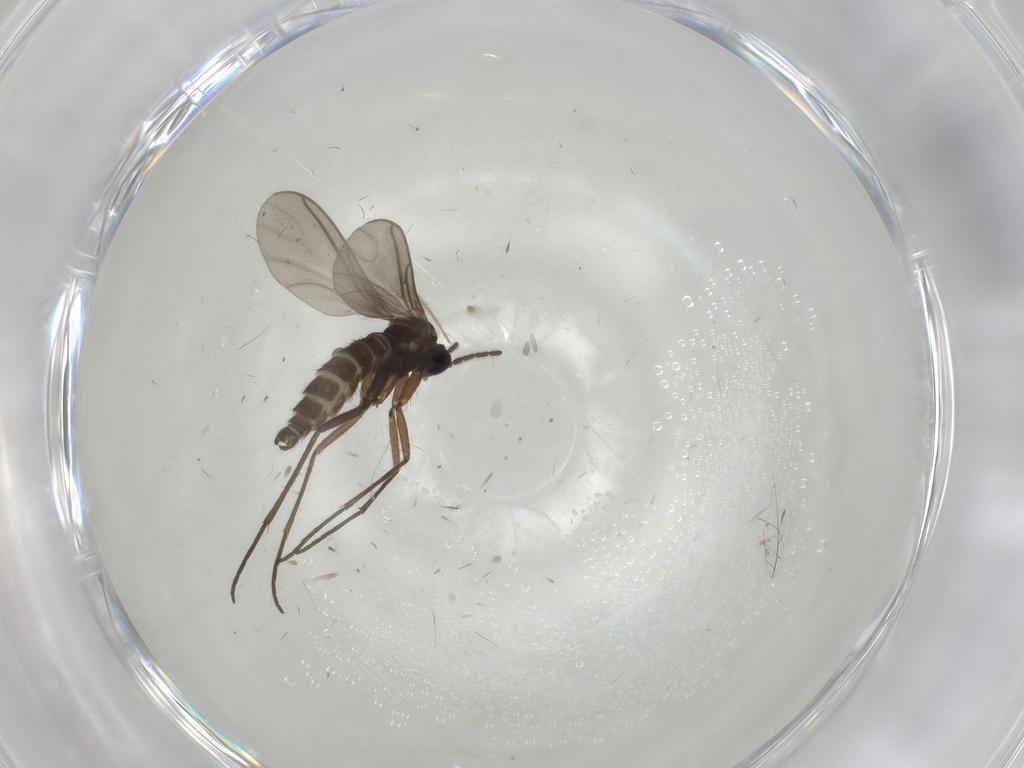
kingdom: Animalia
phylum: Arthropoda
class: Insecta
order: Diptera
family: Sciaridae
